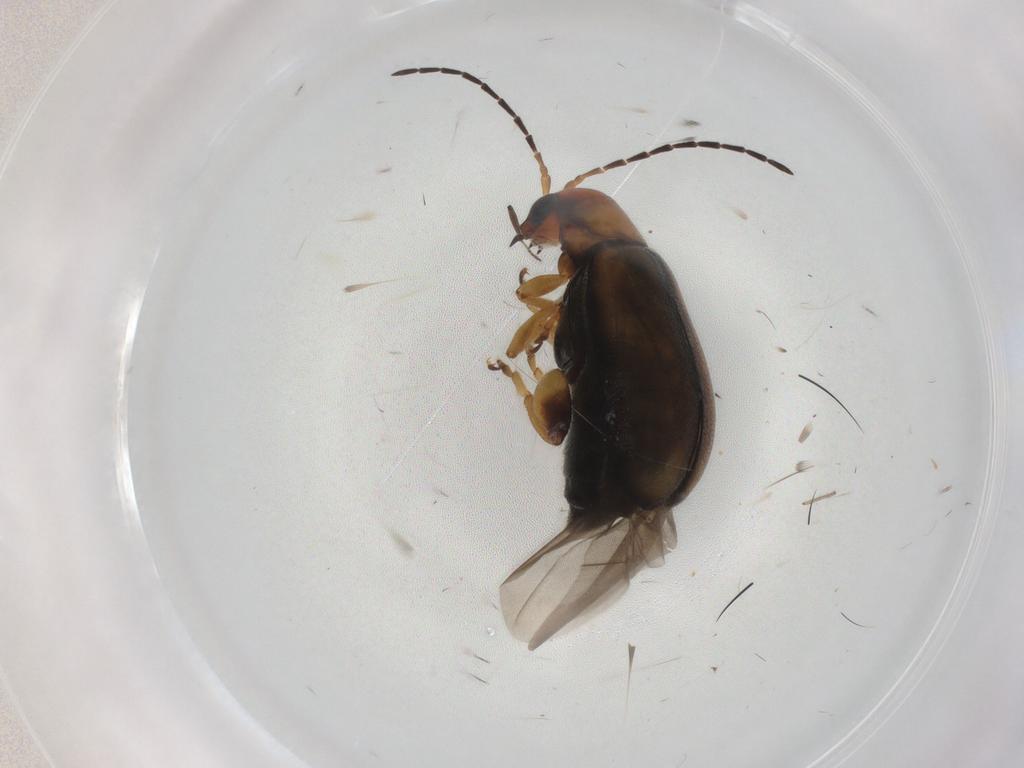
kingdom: Animalia
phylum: Arthropoda
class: Insecta
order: Coleoptera
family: Chrysomelidae
